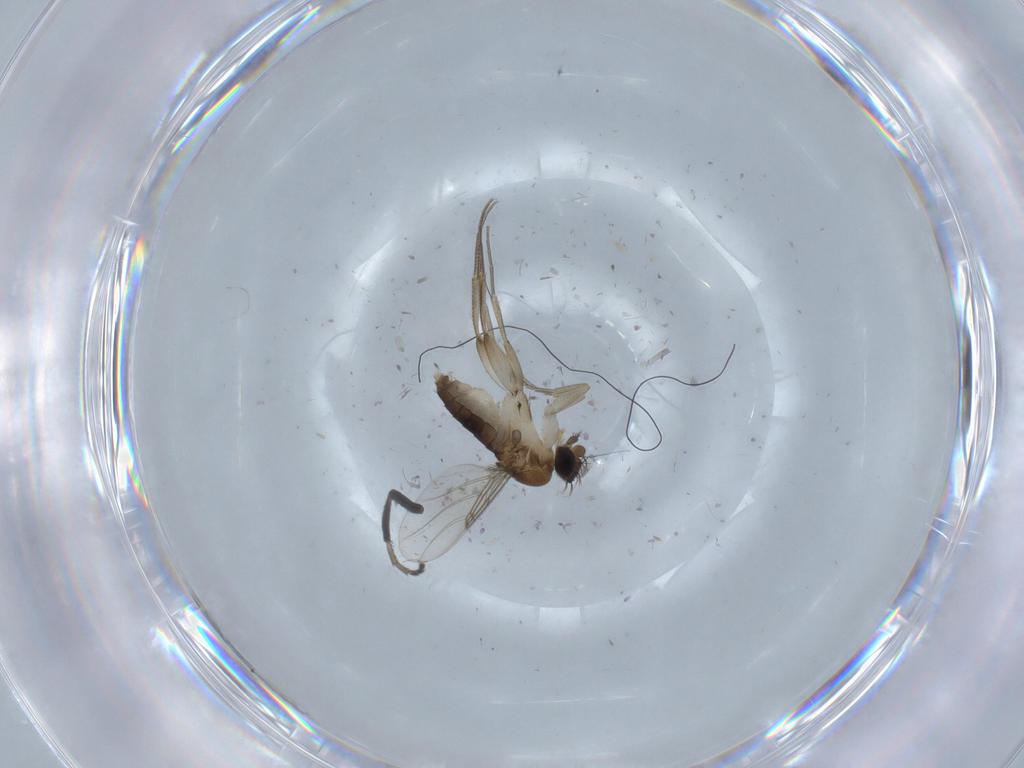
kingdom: Animalia
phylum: Arthropoda
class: Insecta
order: Diptera
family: Milichiidae
